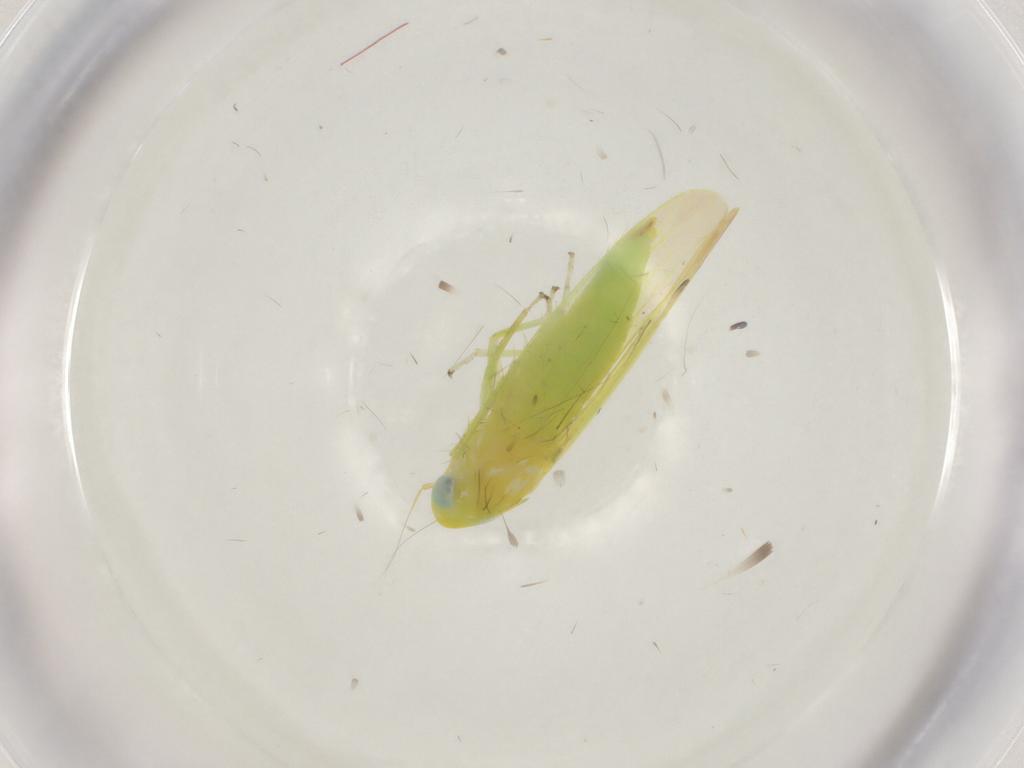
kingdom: Animalia
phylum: Arthropoda
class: Insecta
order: Hemiptera
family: Cicadellidae
